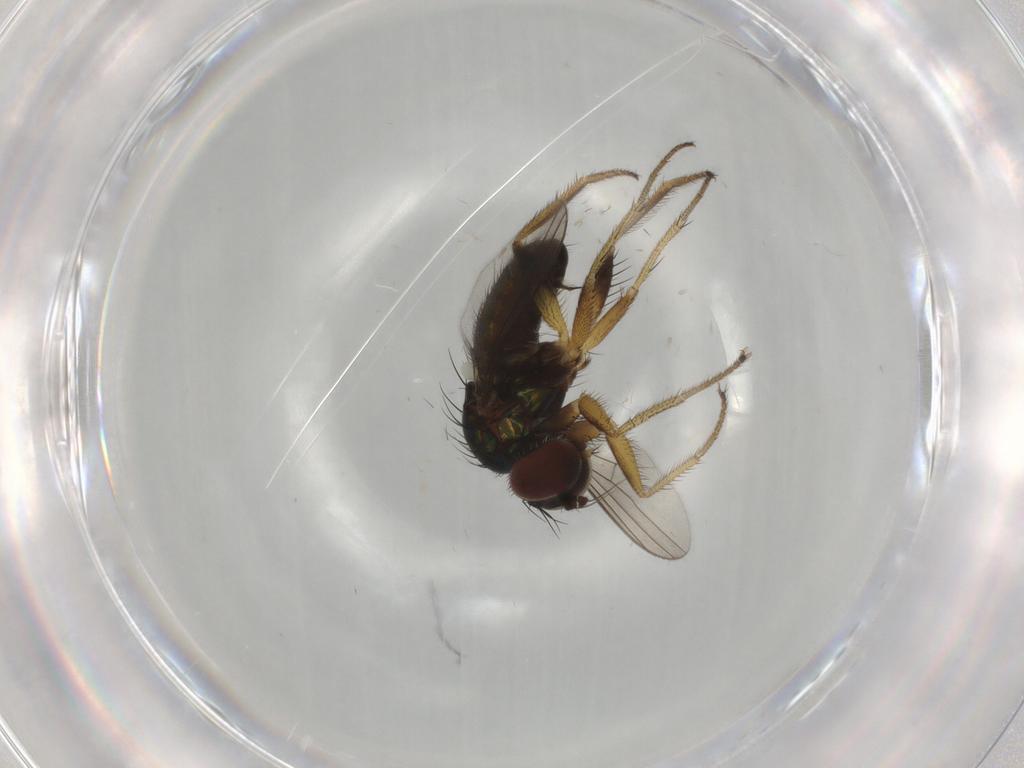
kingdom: Animalia
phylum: Arthropoda
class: Insecta
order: Diptera
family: Dolichopodidae
